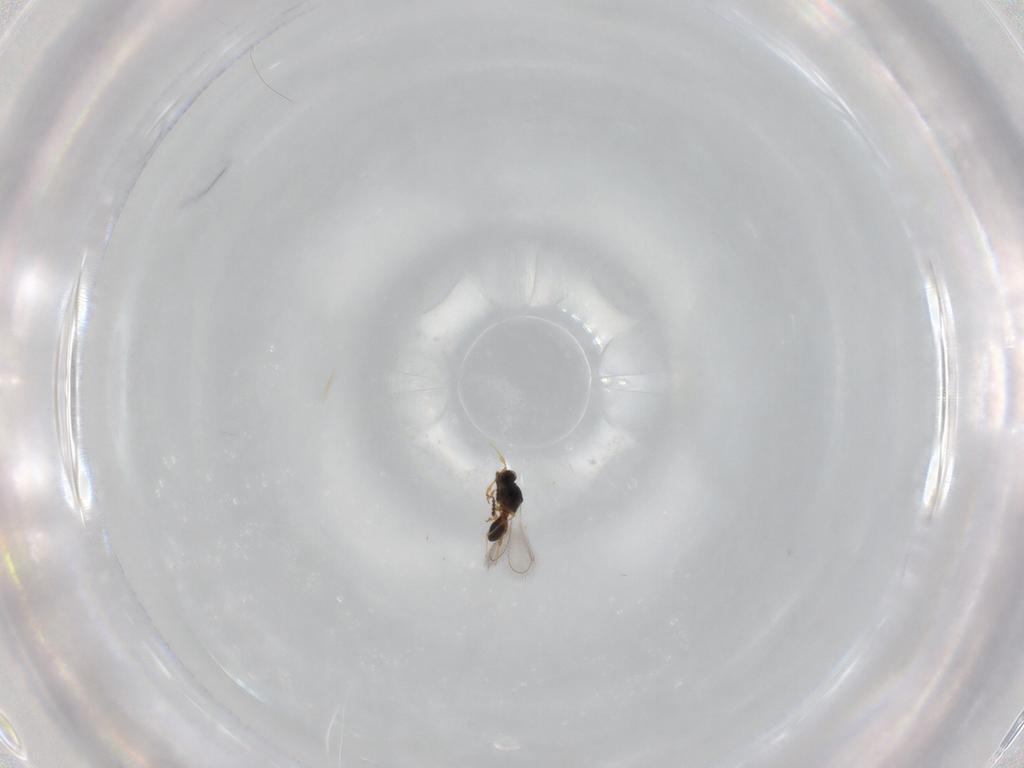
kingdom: Animalia
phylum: Arthropoda
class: Insecta
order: Hymenoptera
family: Platygastridae
